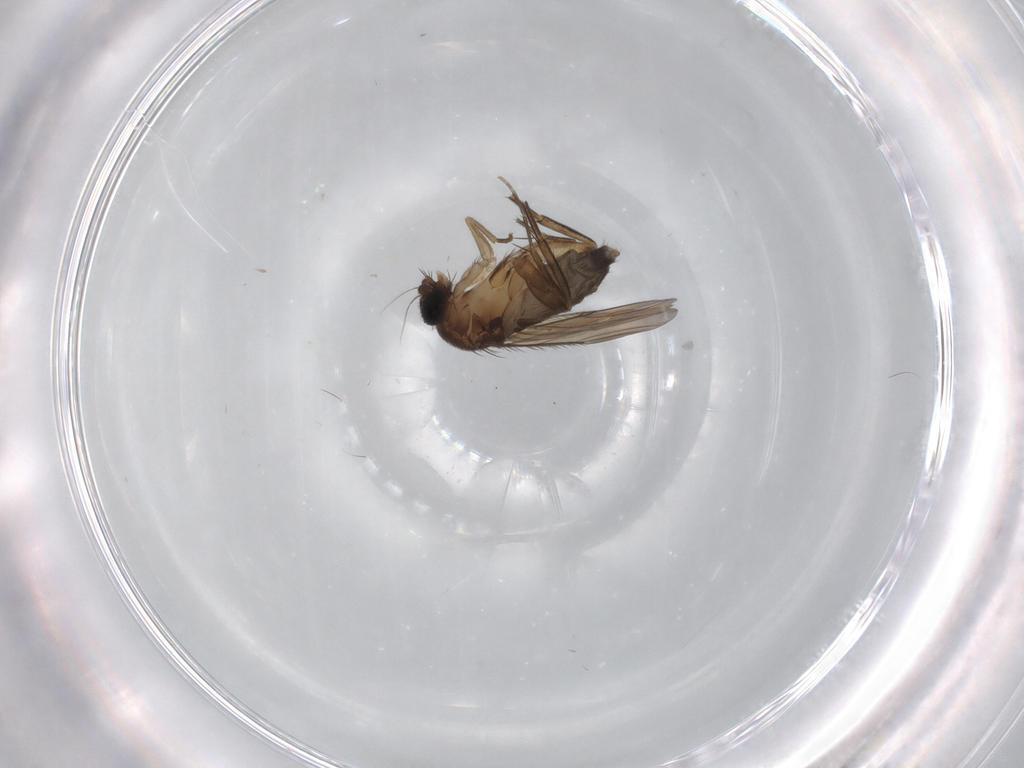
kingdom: Animalia
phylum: Arthropoda
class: Insecta
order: Diptera
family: Phoridae
